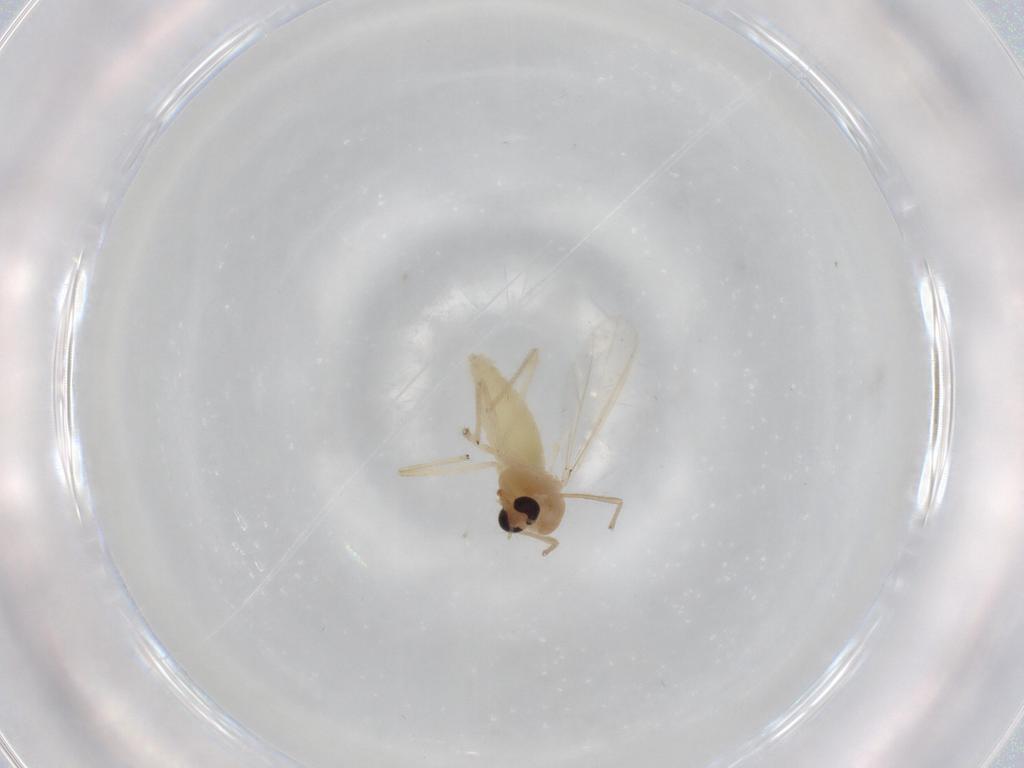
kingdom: Animalia
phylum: Arthropoda
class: Insecta
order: Diptera
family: Chironomidae
